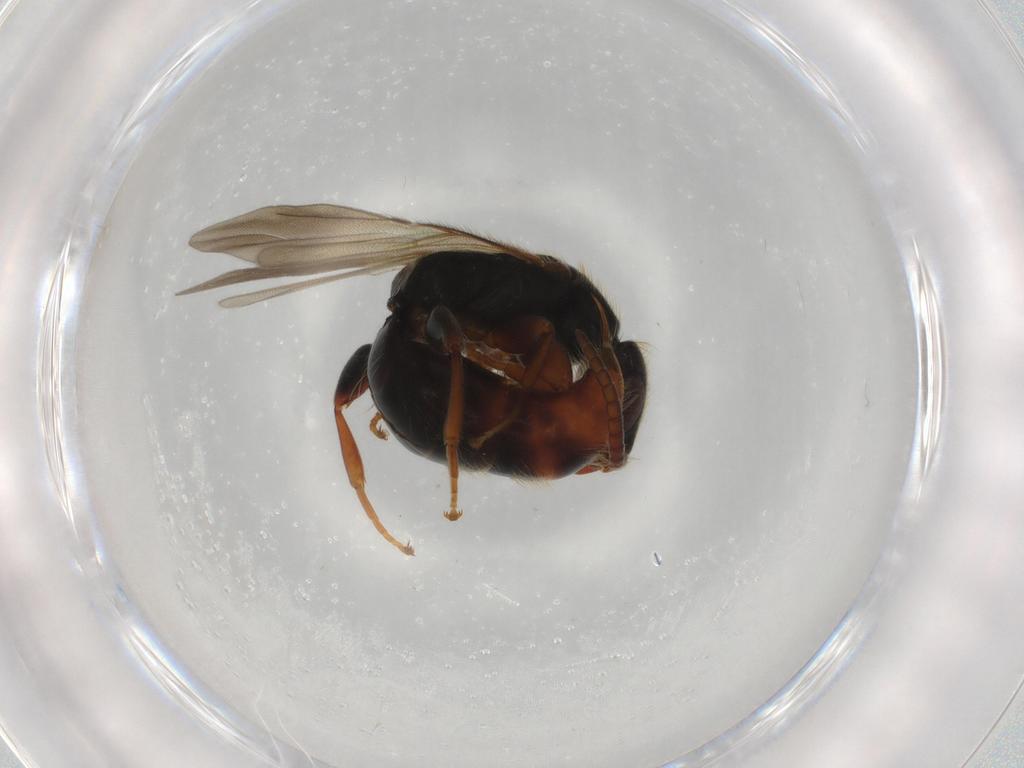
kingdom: Animalia
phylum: Arthropoda
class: Insecta
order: Hymenoptera
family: Bethylidae
